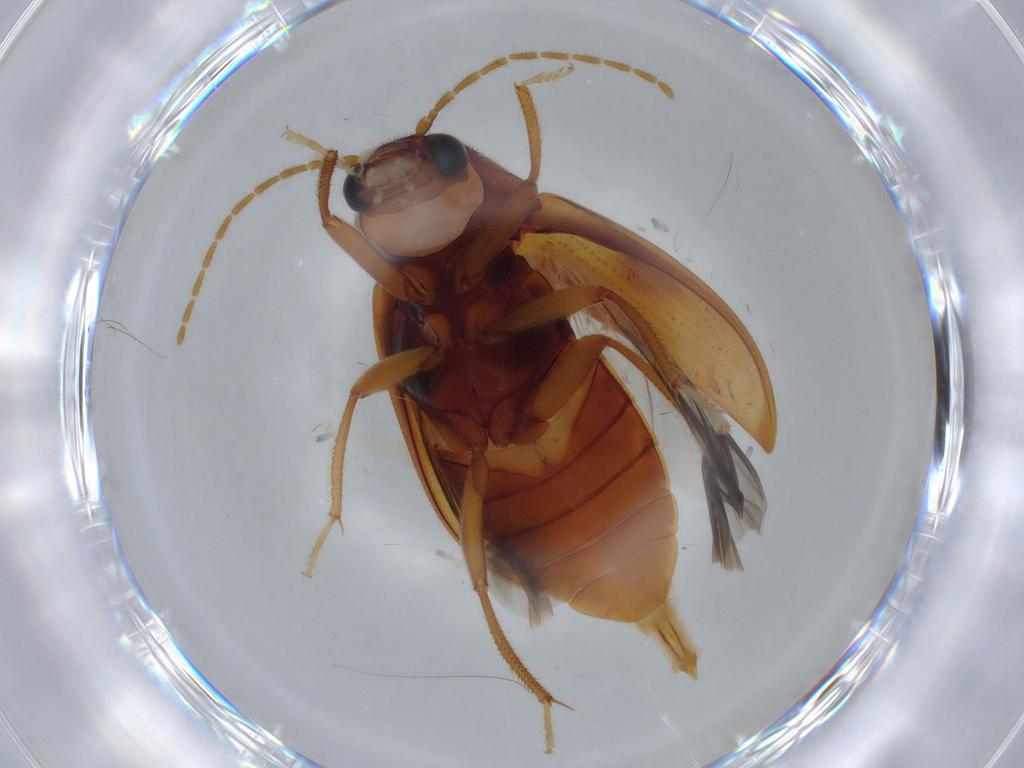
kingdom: Animalia
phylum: Arthropoda
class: Insecta
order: Coleoptera
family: Ptilodactylidae
